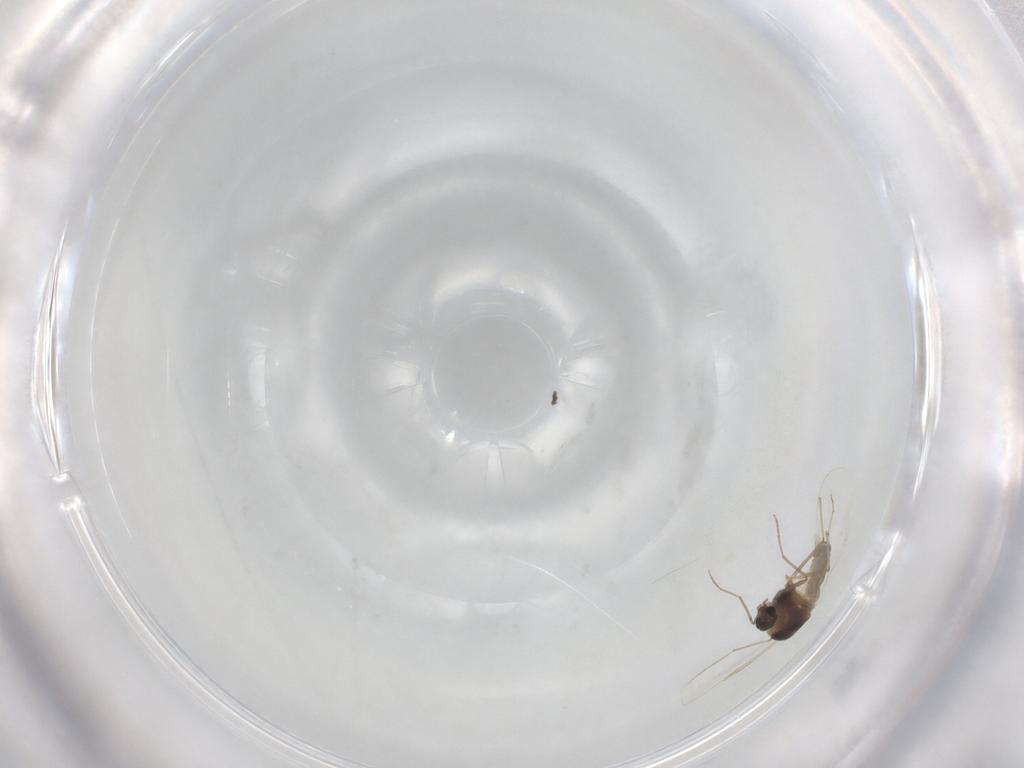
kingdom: Animalia
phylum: Arthropoda
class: Insecta
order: Diptera
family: Chironomidae
